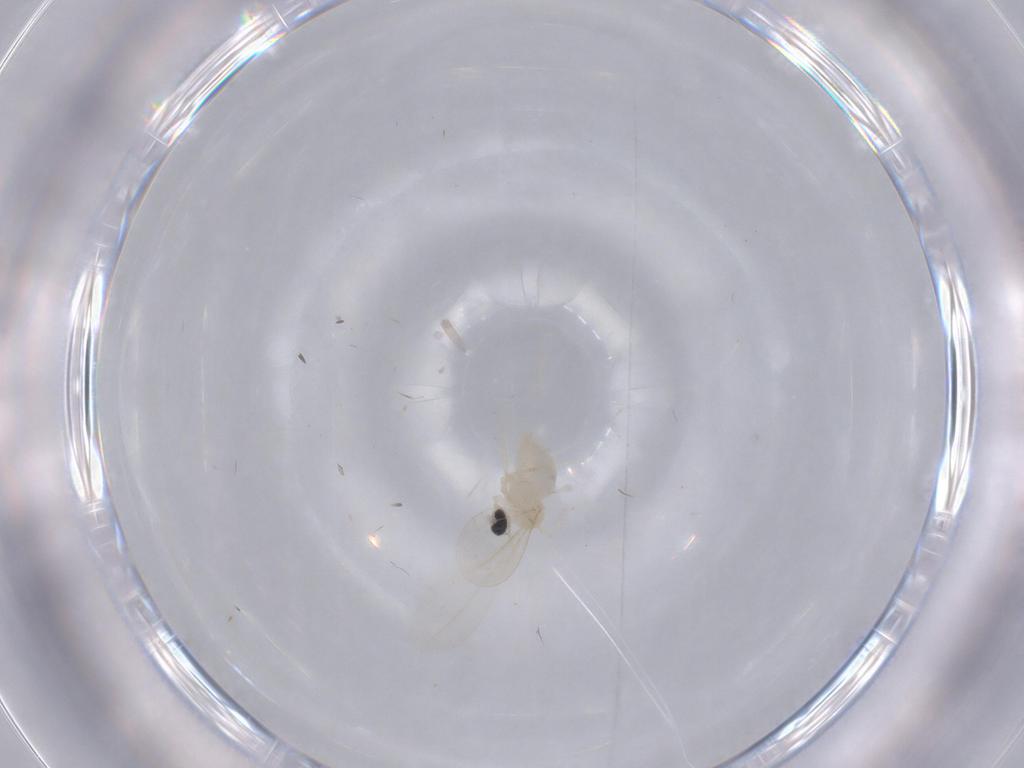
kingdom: Animalia
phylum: Arthropoda
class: Insecta
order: Diptera
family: Cecidomyiidae
